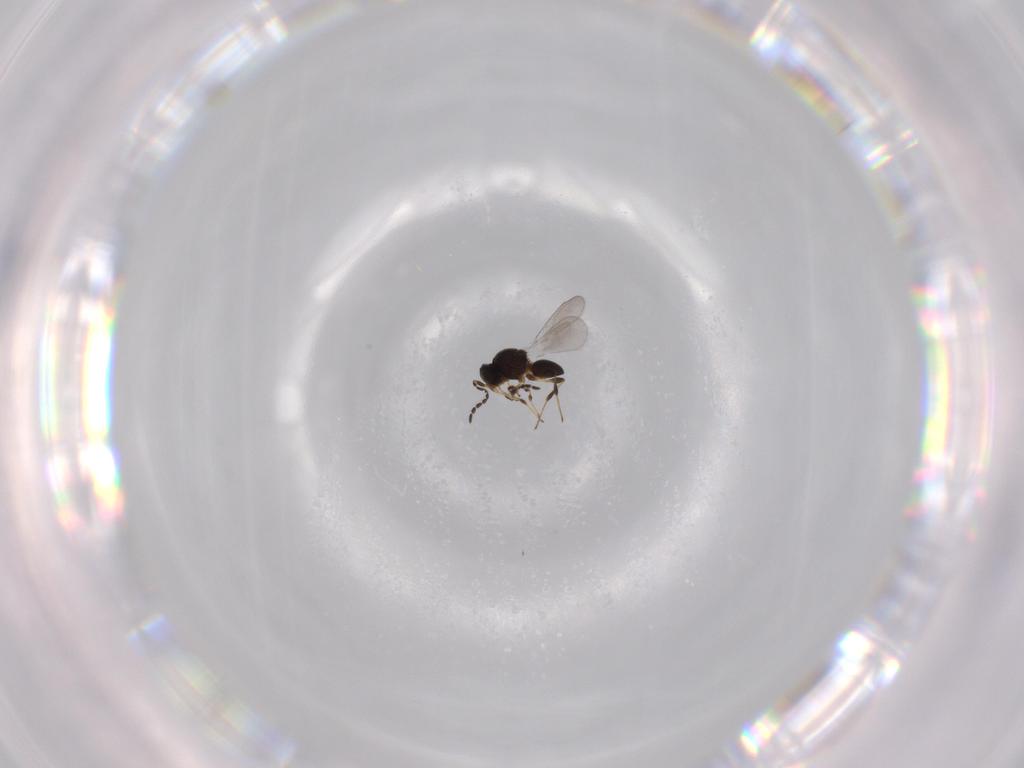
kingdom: Animalia
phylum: Arthropoda
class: Insecta
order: Hymenoptera
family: Platygastridae
